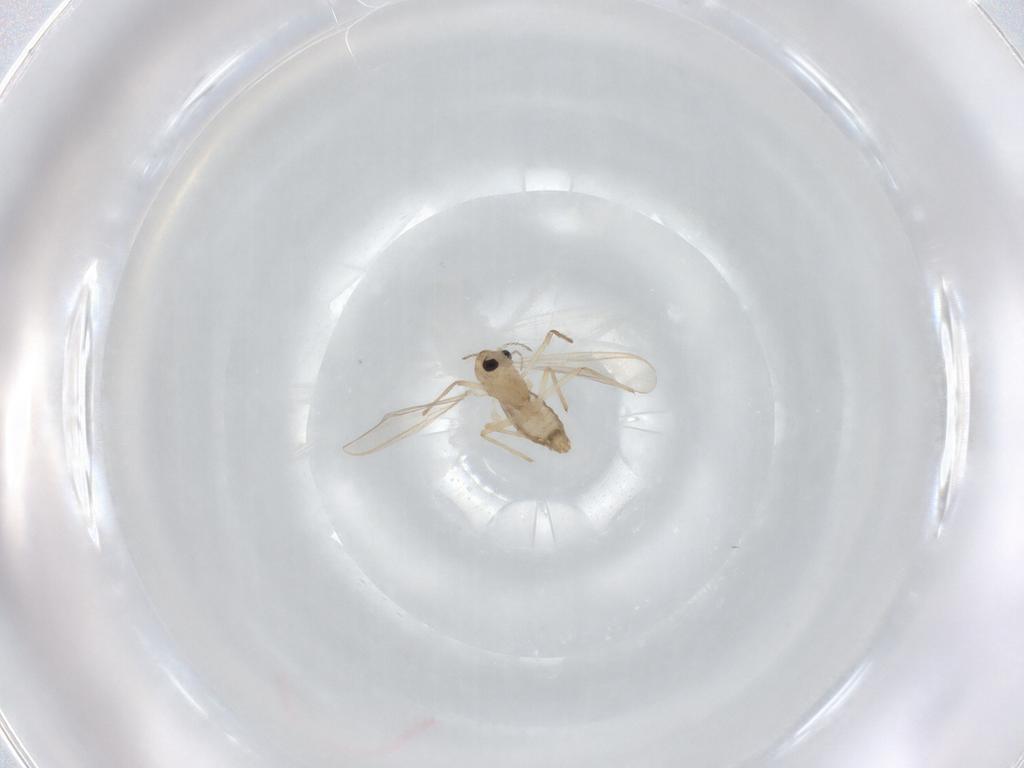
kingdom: Animalia
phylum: Arthropoda
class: Insecta
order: Diptera
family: Chironomidae
